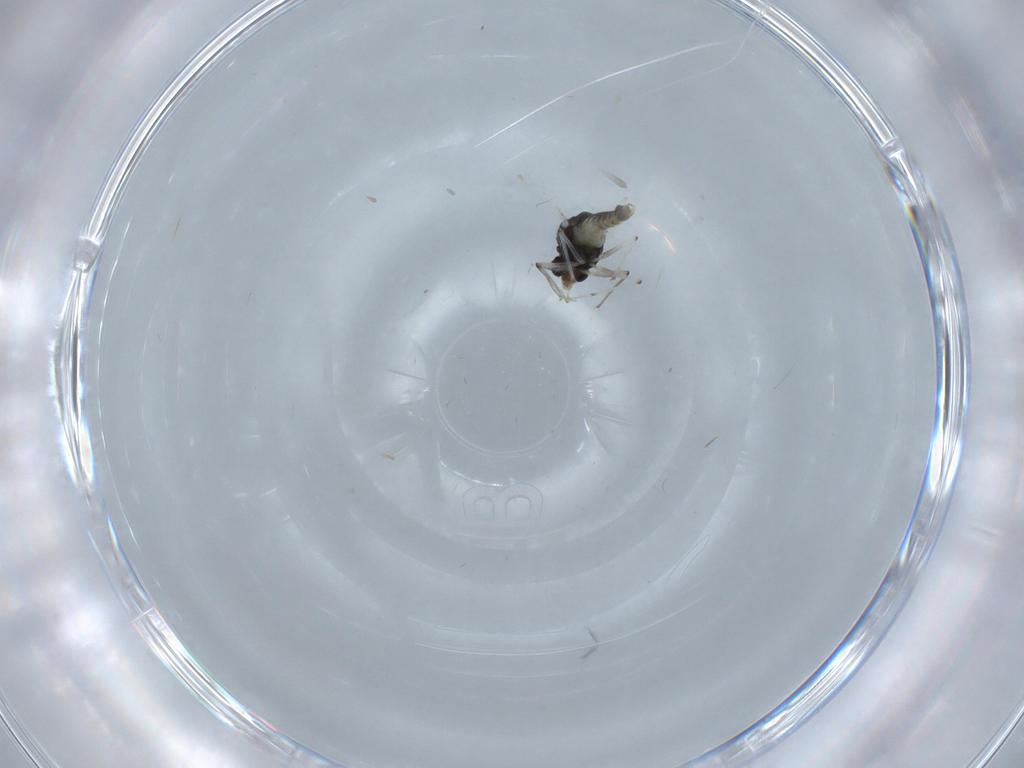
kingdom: Animalia
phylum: Arthropoda
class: Insecta
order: Diptera
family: Chironomidae
